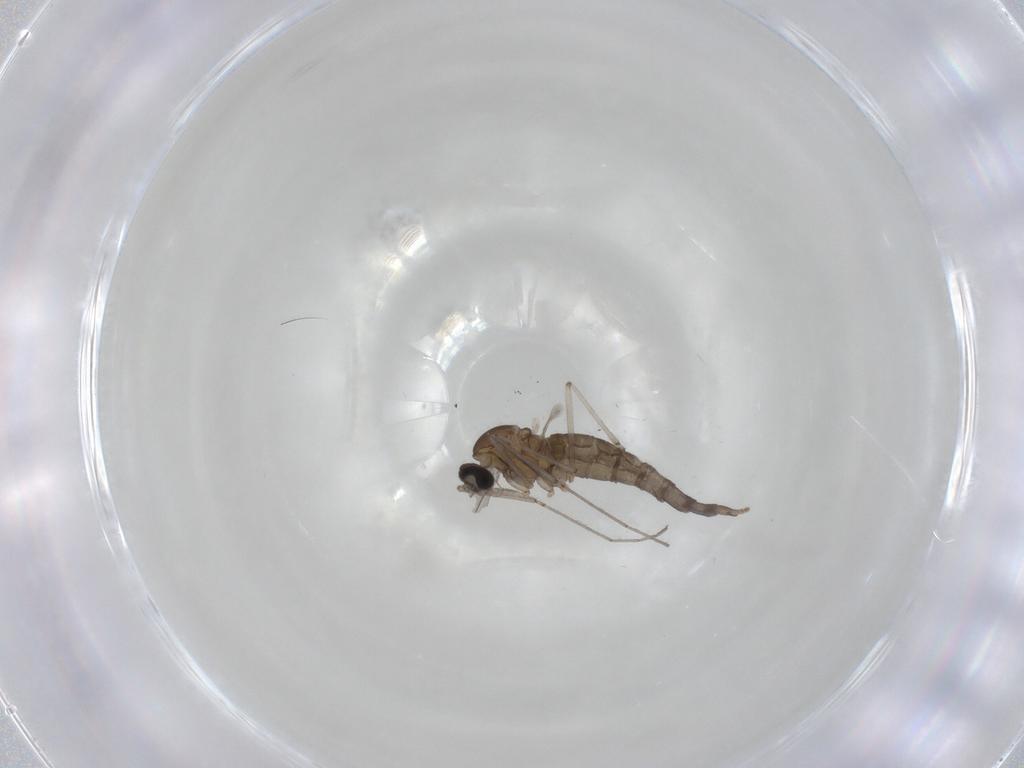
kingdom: Animalia
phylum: Arthropoda
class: Insecta
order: Diptera
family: Cecidomyiidae
